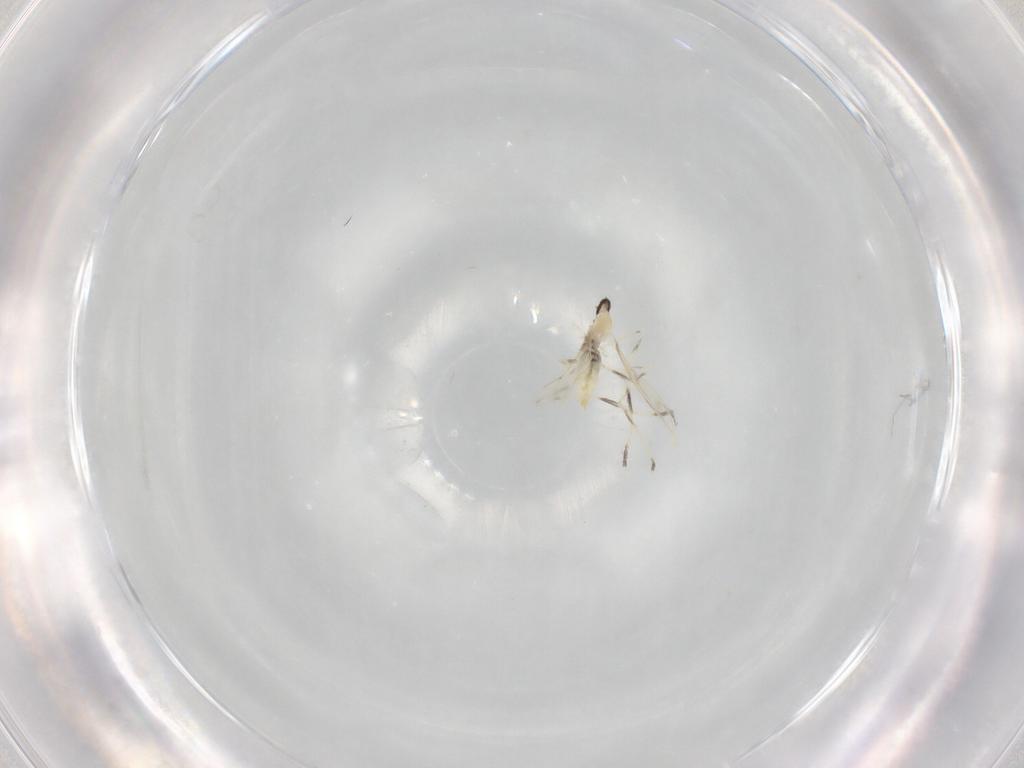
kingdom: Animalia
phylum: Arthropoda
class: Insecta
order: Diptera
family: Cecidomyiidae
